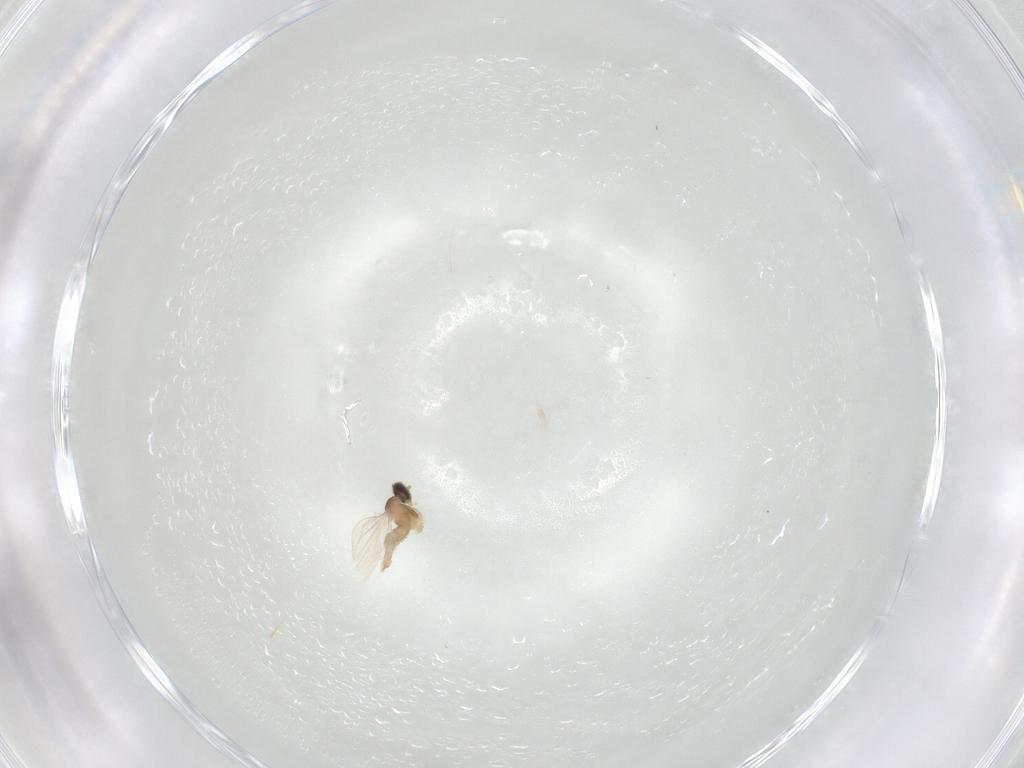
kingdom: Animalia
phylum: Arthropoda
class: Insecta
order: Diptera
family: Cecidomyiidae
